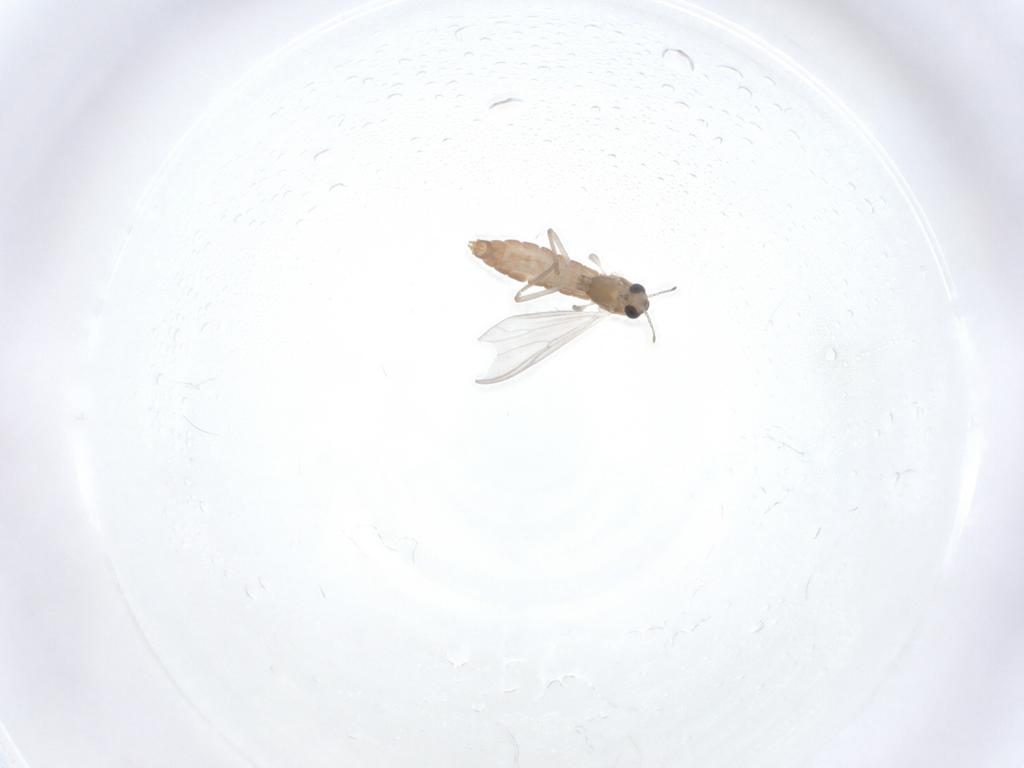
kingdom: Animalia
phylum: Arthropoda
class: Insecta
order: Diptera
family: Chironomidae
